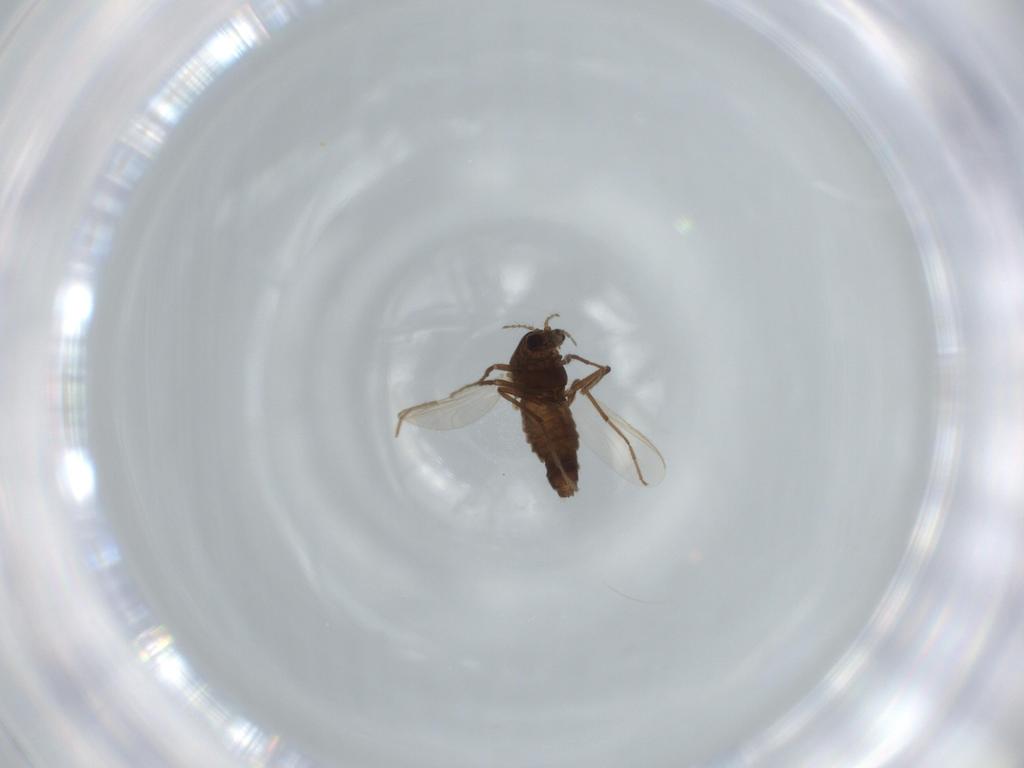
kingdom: Animalia
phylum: Arthropoda
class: Insecta
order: Diptera
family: Chironomidae
